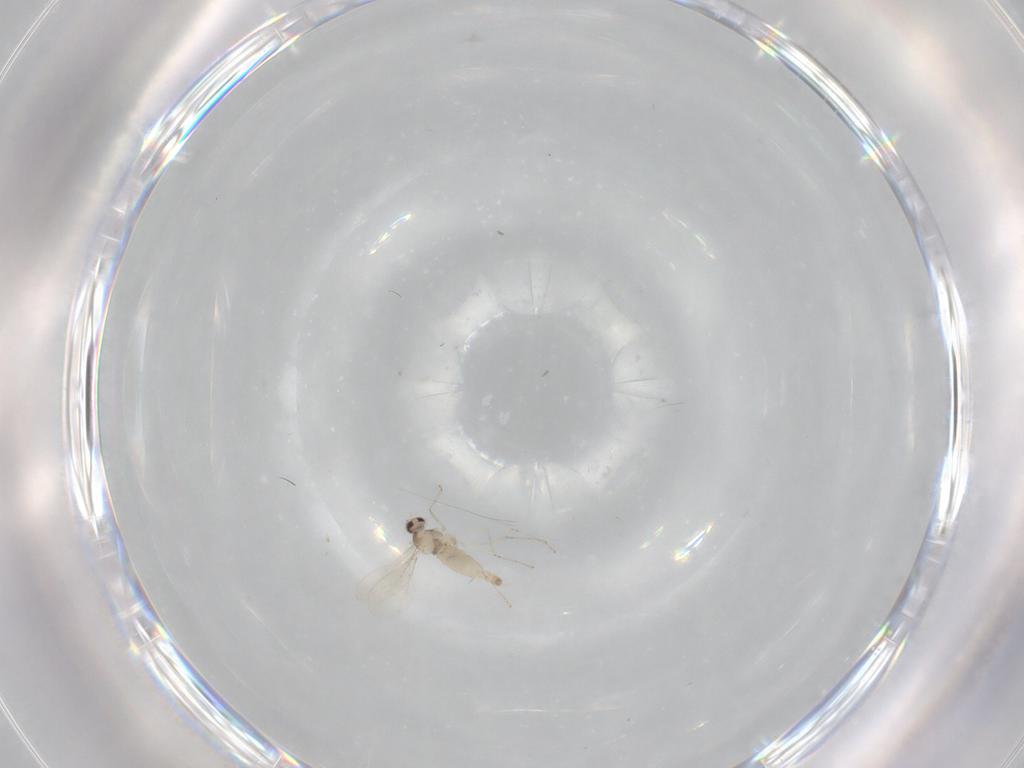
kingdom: Animalia
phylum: Arthropoda
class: Insecta
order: Diptera
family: Cecidomyiidae
